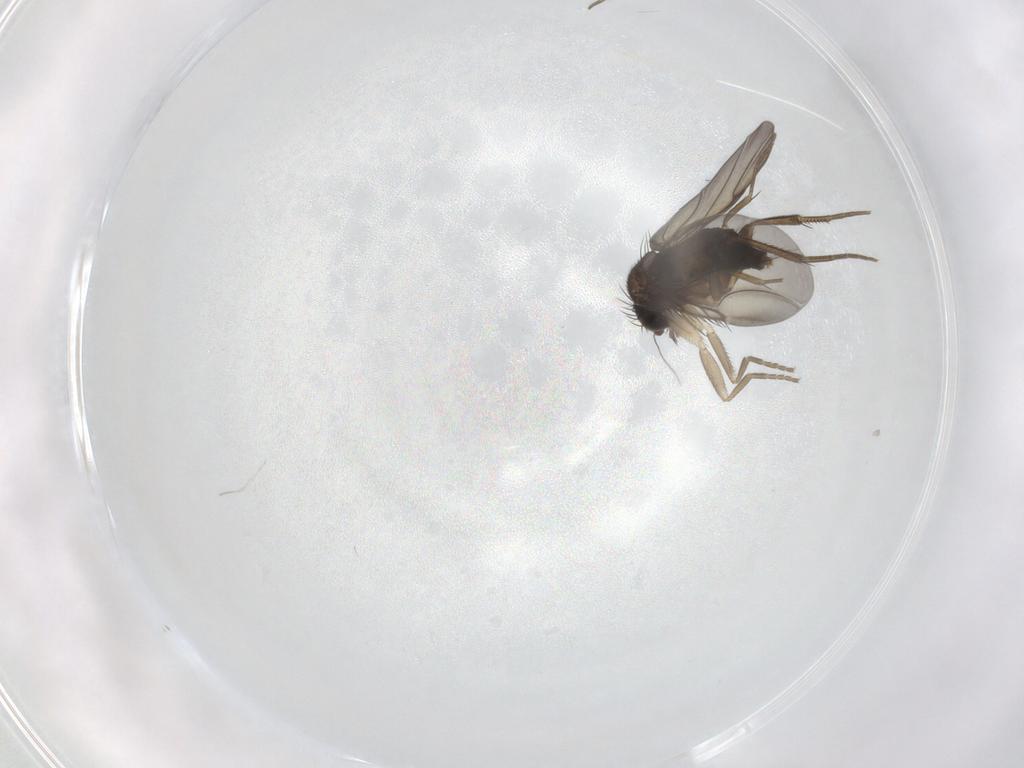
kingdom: Animalia
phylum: Arthropoda
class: Insecta
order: Diptera
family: Phoridae
